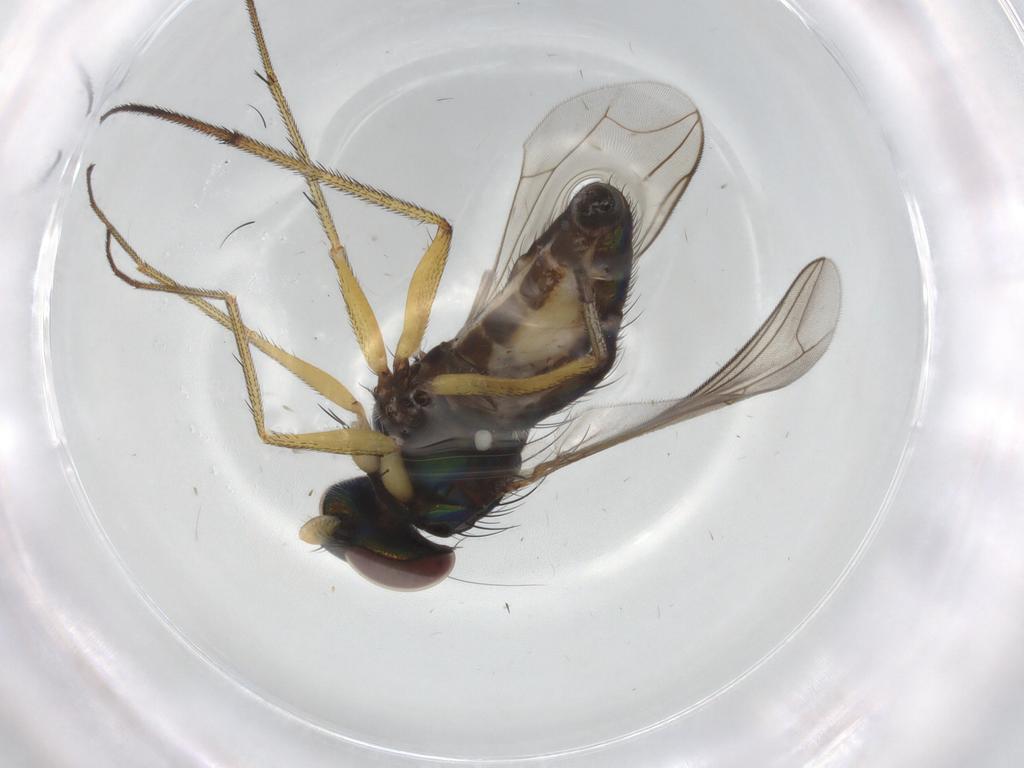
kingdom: Animalia
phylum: Arthropoda
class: Insecta
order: Diptera
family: Dolichopodidae
